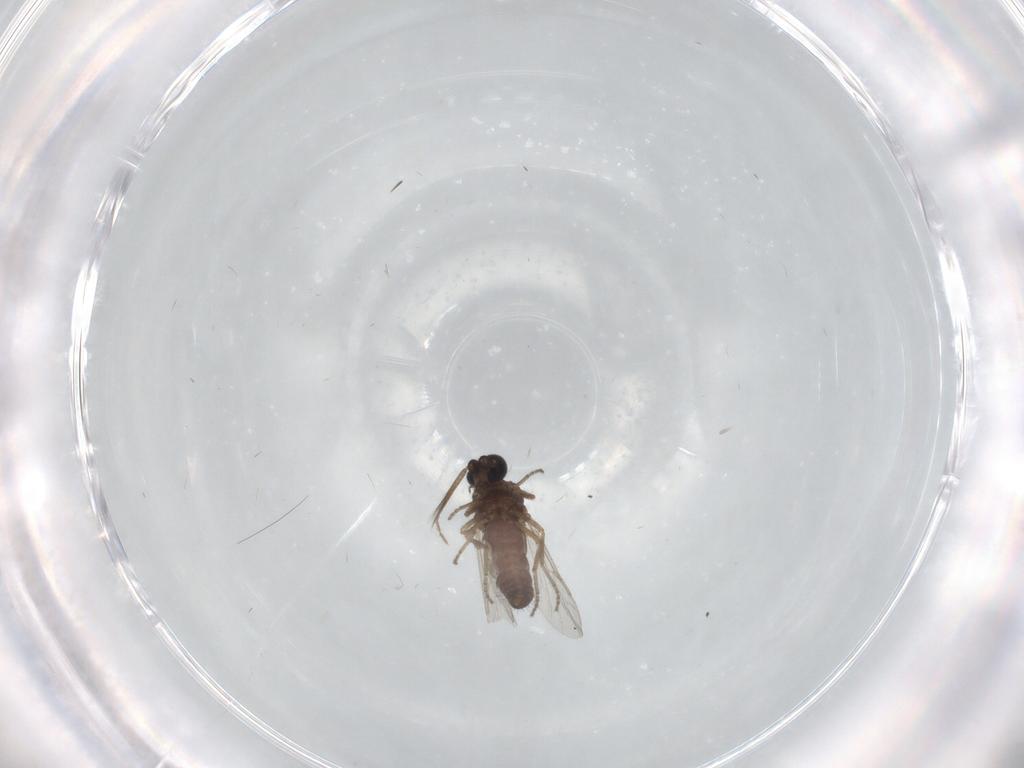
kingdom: Animalia
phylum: Arthropoda
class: Insecta
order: Diptera
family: Ceratopogonidae
